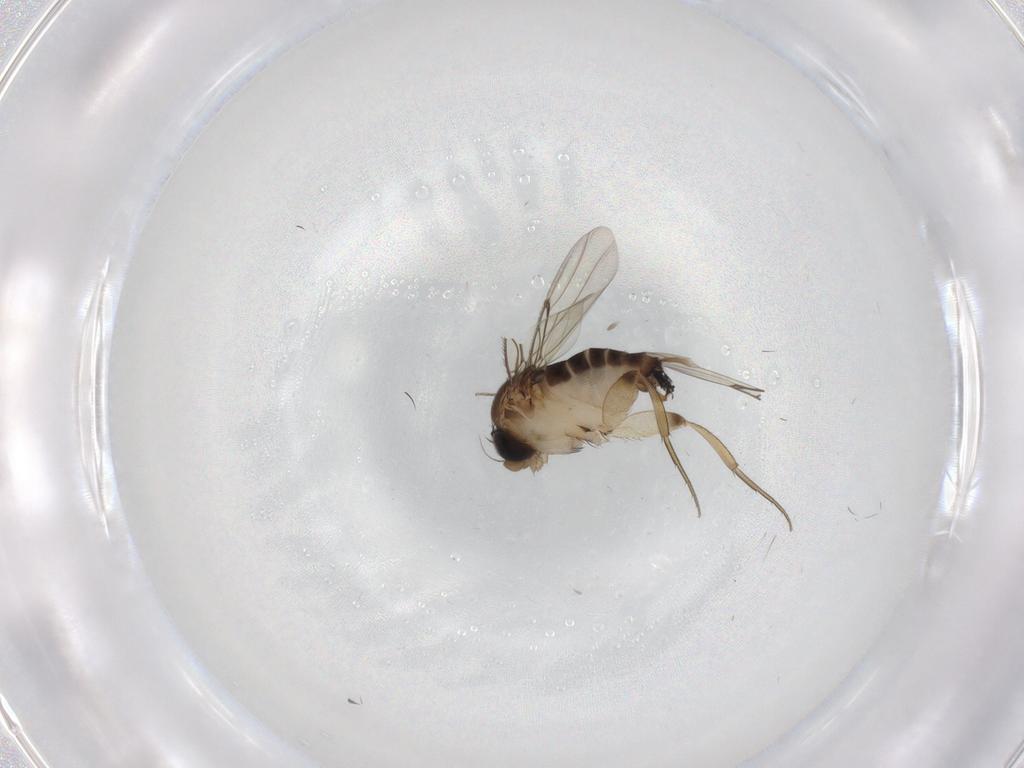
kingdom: Animalia
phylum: Arthropoda
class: Insecta
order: Diptera
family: Phoridae
